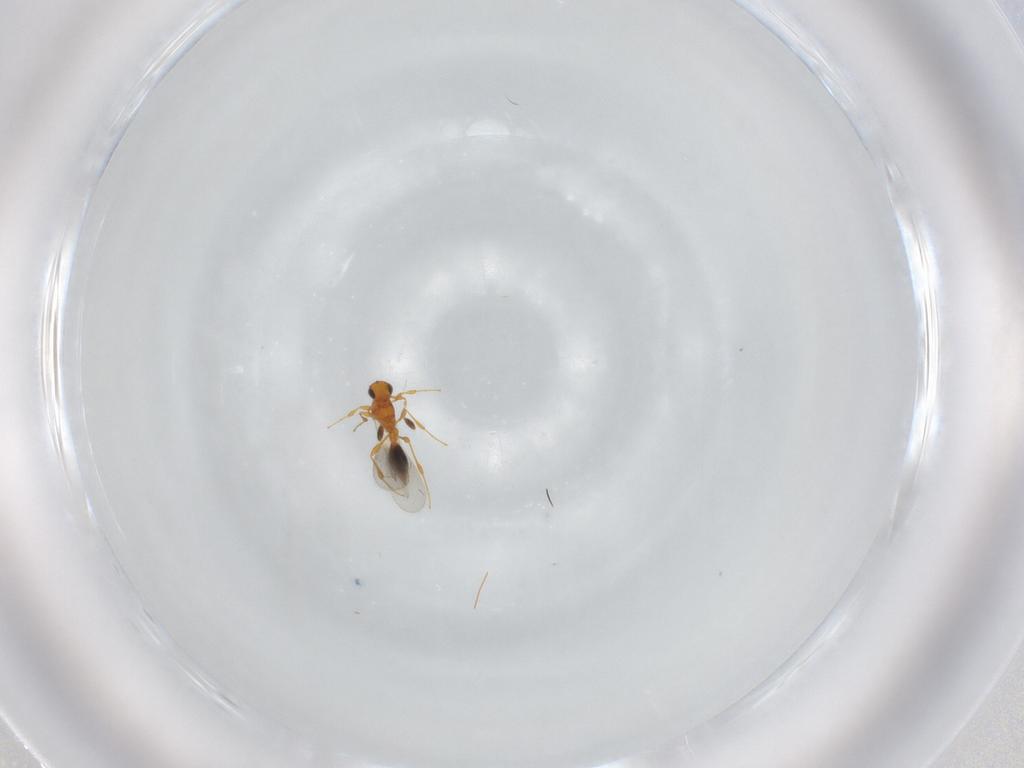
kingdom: Animalia
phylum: Arthropoda
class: Insecta
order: Hymenoptera
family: Platygastridae
